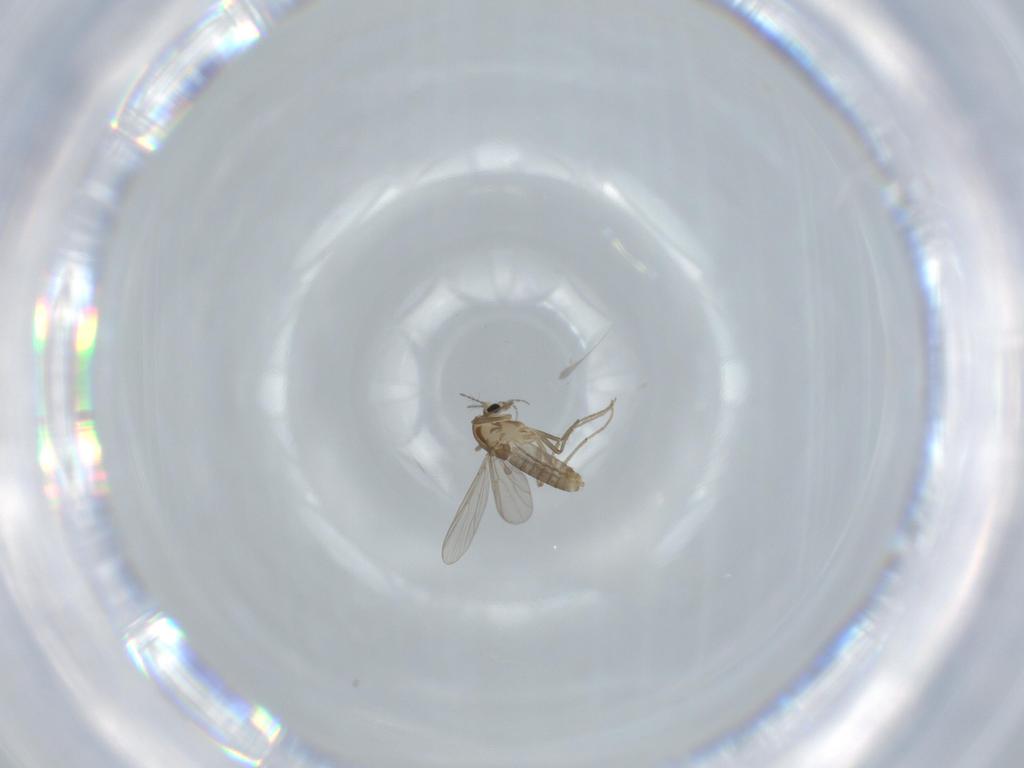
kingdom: Animalia
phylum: Arthropoda
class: Insecta
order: Diptera
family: Chironomidae
